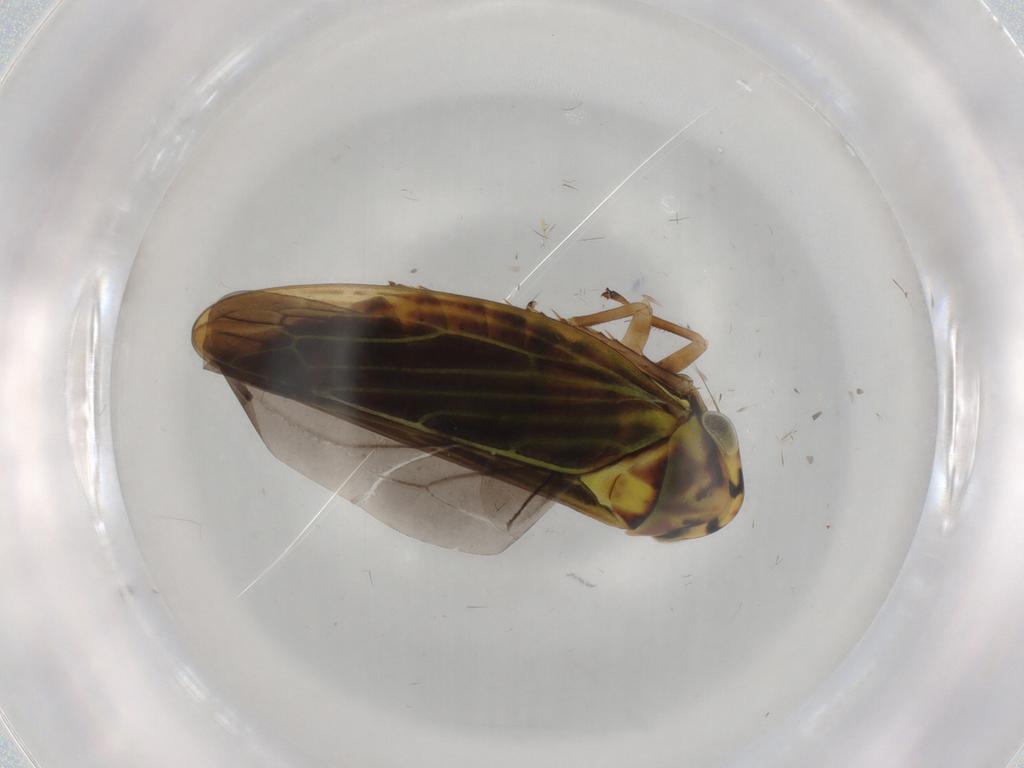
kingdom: Animalia
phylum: Arthropoda
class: Insecta
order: Hemiptera
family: Cicadellidae
